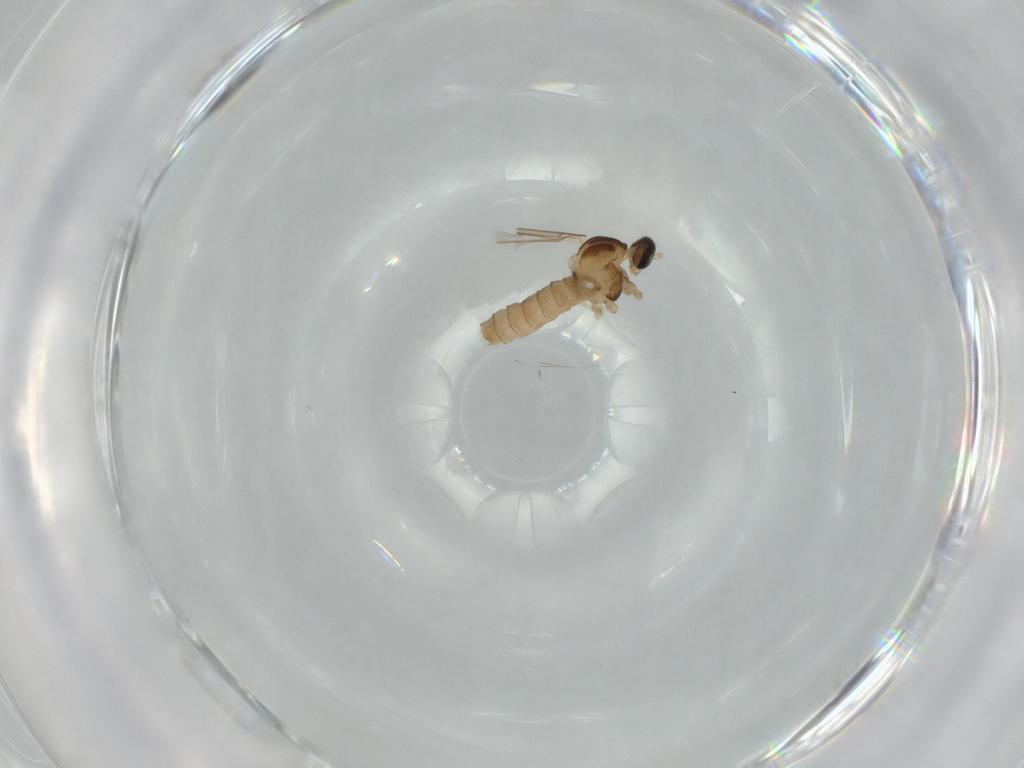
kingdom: Animalia
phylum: Arthropoda
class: Insecta
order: Diptera
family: Cecidomyiidae
